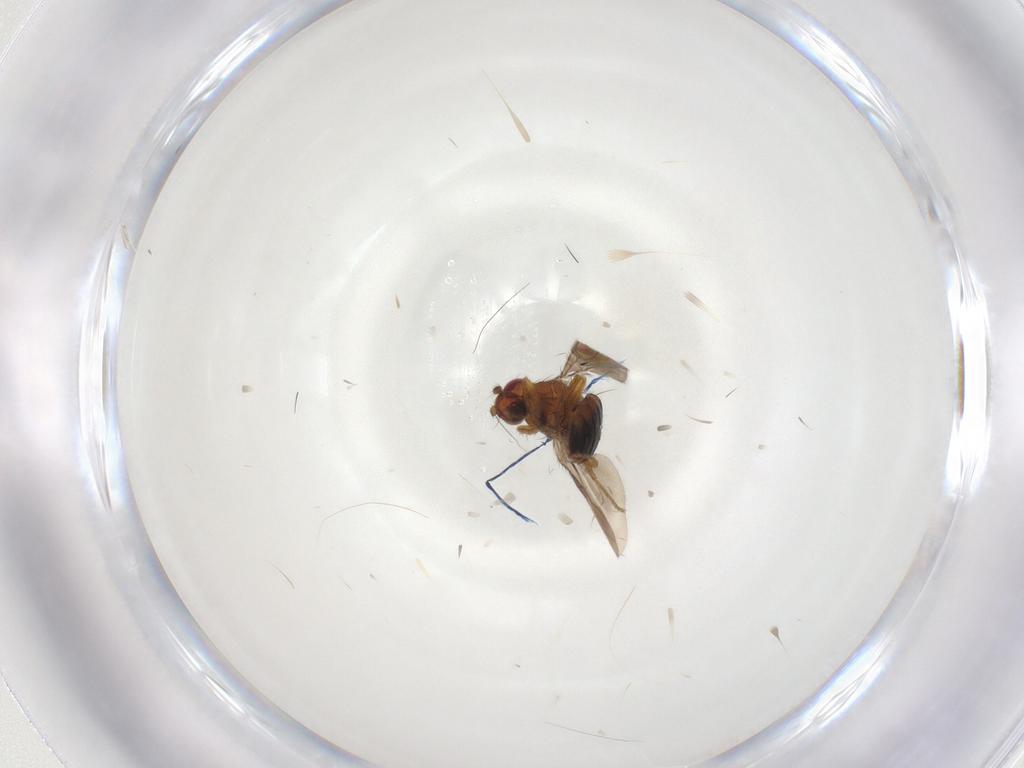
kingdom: Animalia
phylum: Arthropoda
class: Insecta
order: Diptera
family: Sphaeroceridae
